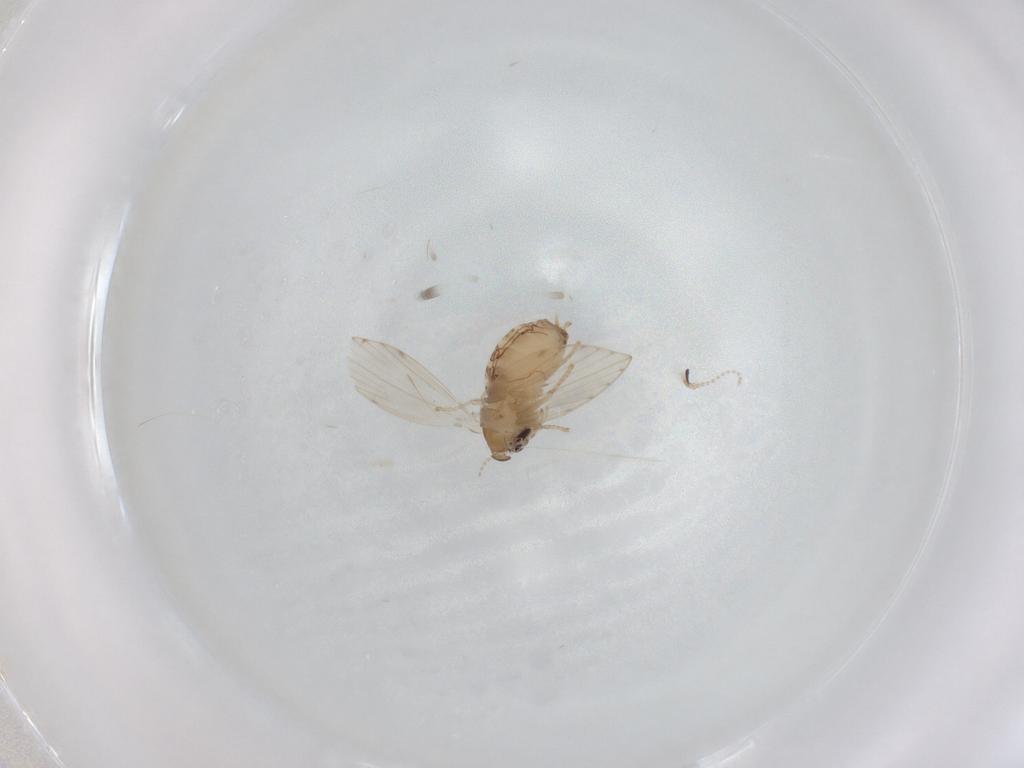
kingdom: Animalia
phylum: Arthropoda
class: Insecta
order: Diptera
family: Psychodidae
